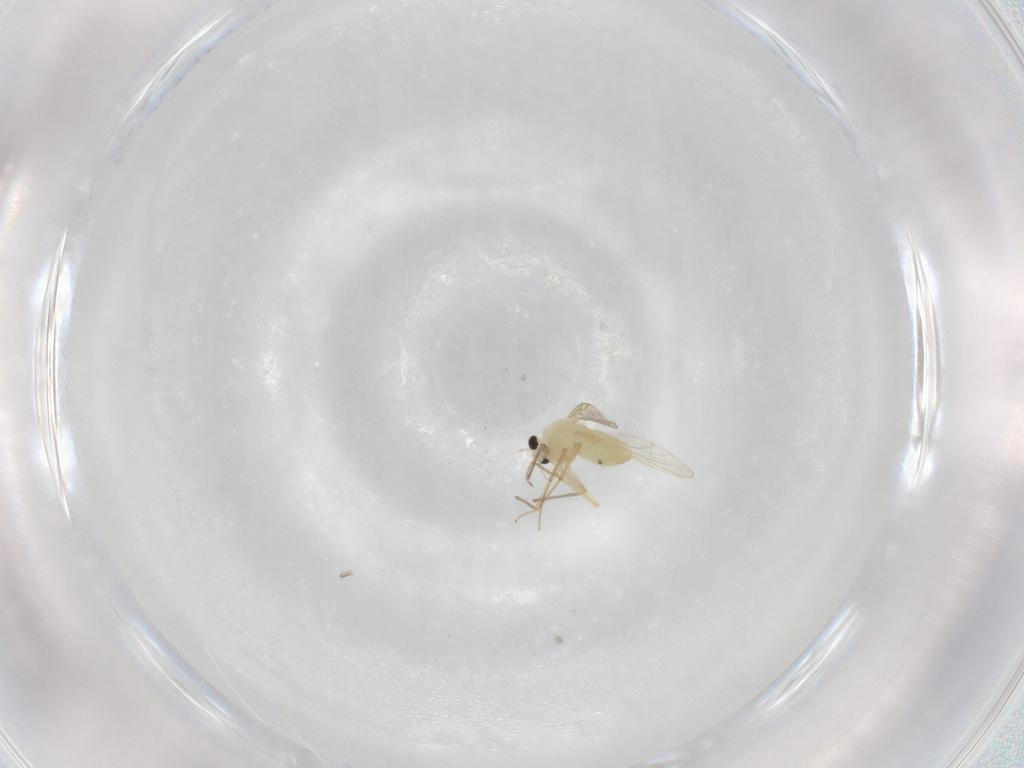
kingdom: Animalia
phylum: Arthropoda
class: Insecta
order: Diptera
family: Chironomidae
